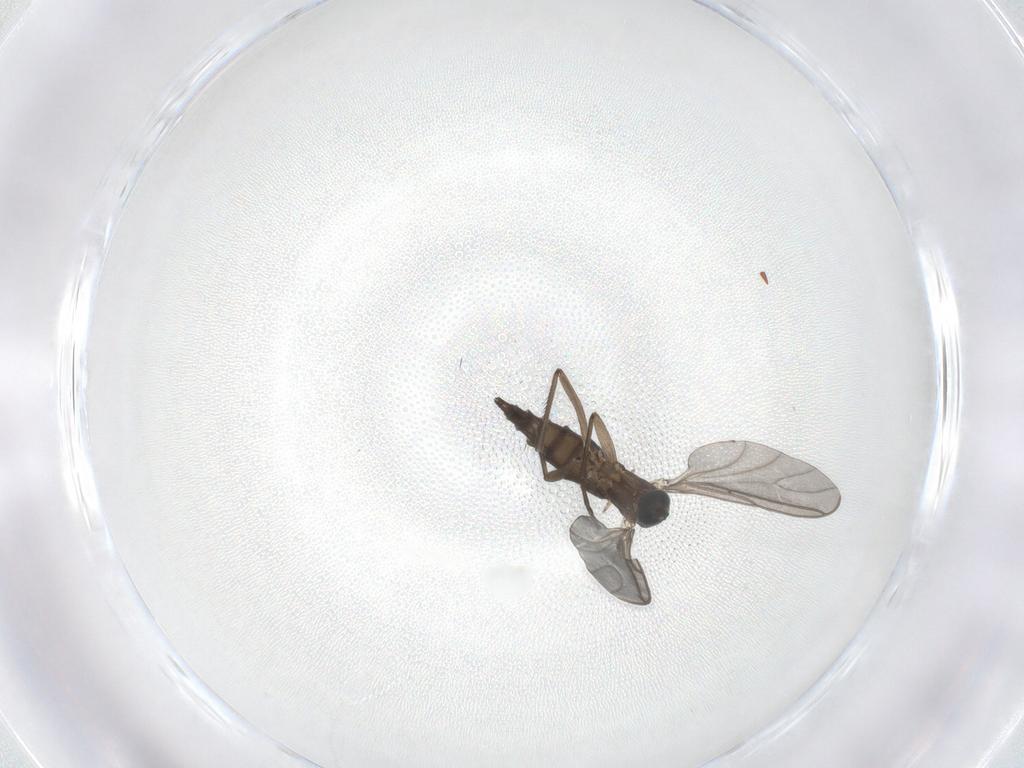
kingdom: Animalia
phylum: Arthropoda
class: Insecta
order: Diptera
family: Sciaridae
